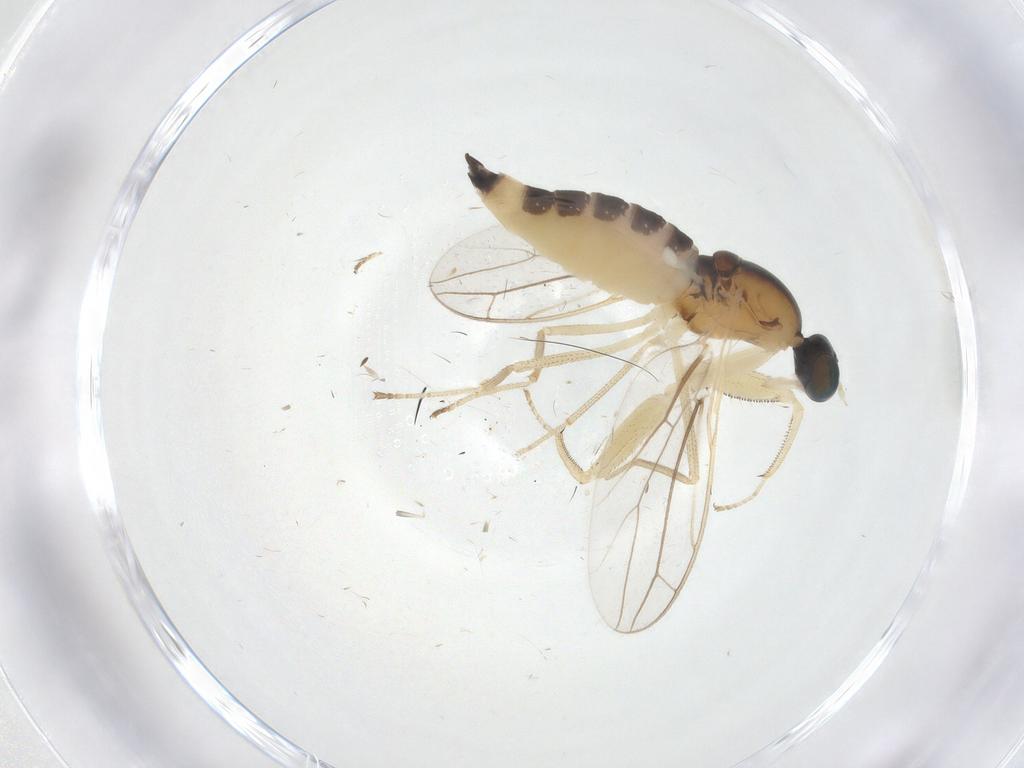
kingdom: Animalia
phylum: Arthropoda
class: Insecta
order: Diptera
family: Empididae
